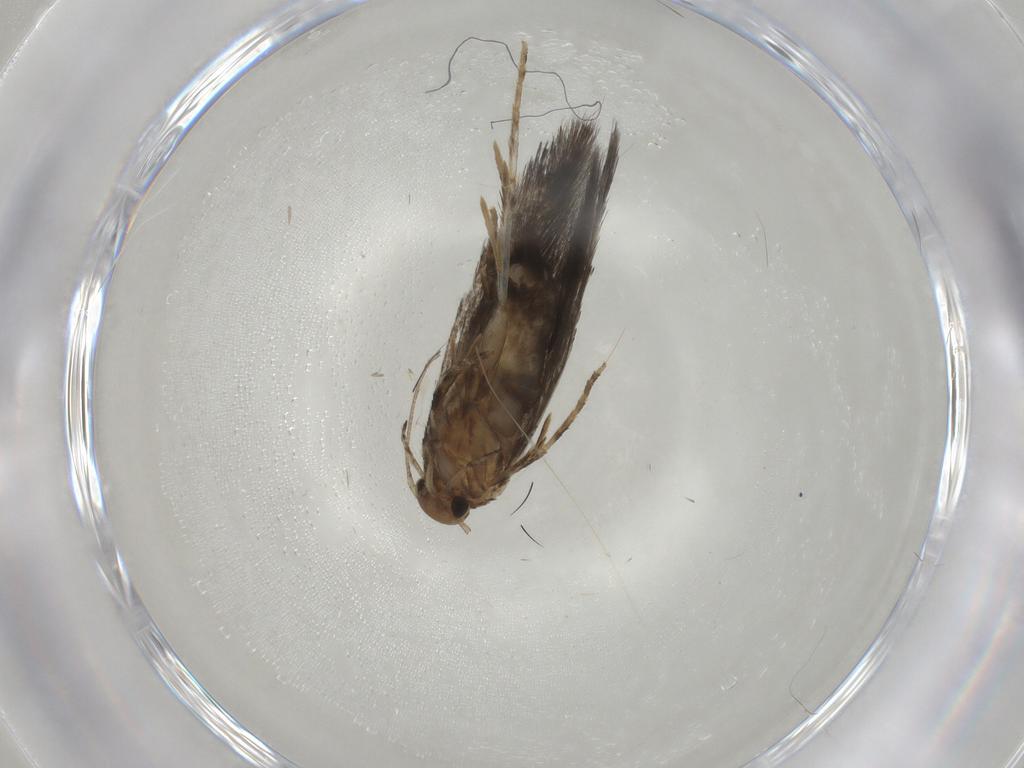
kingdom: Animalia
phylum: Arthropoda
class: Insecta
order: Lepidoptera
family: Elachistidae
